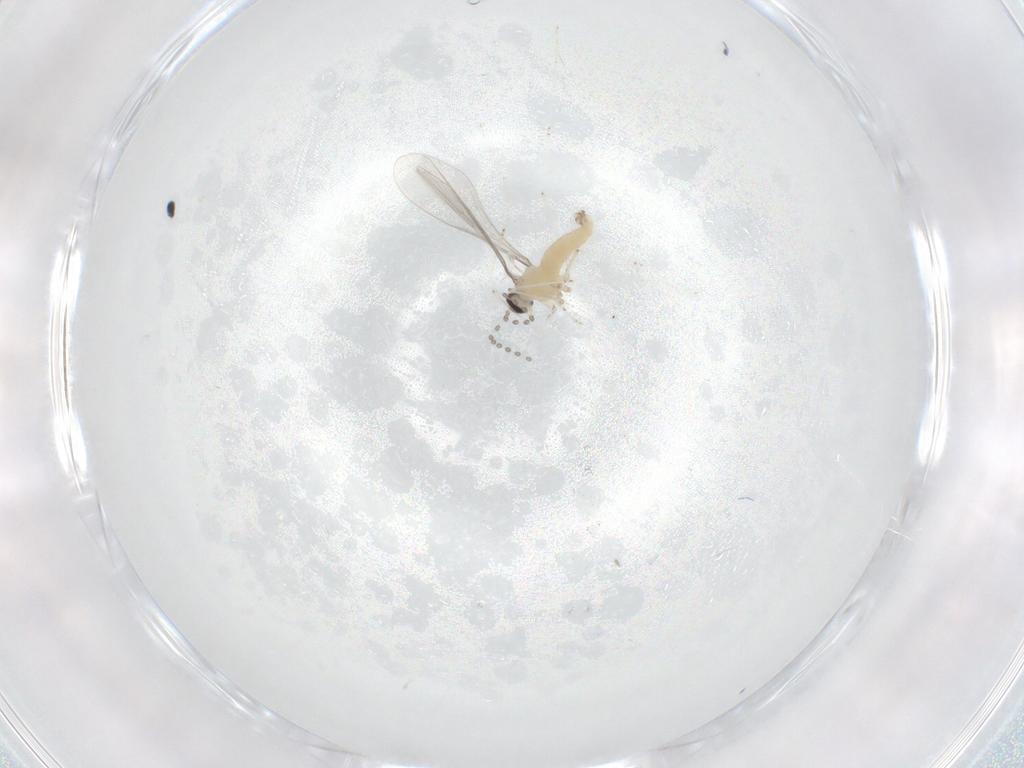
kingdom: Animalia
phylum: Arthropoda
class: Insecta
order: Diptera
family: Cecidomyiidae
